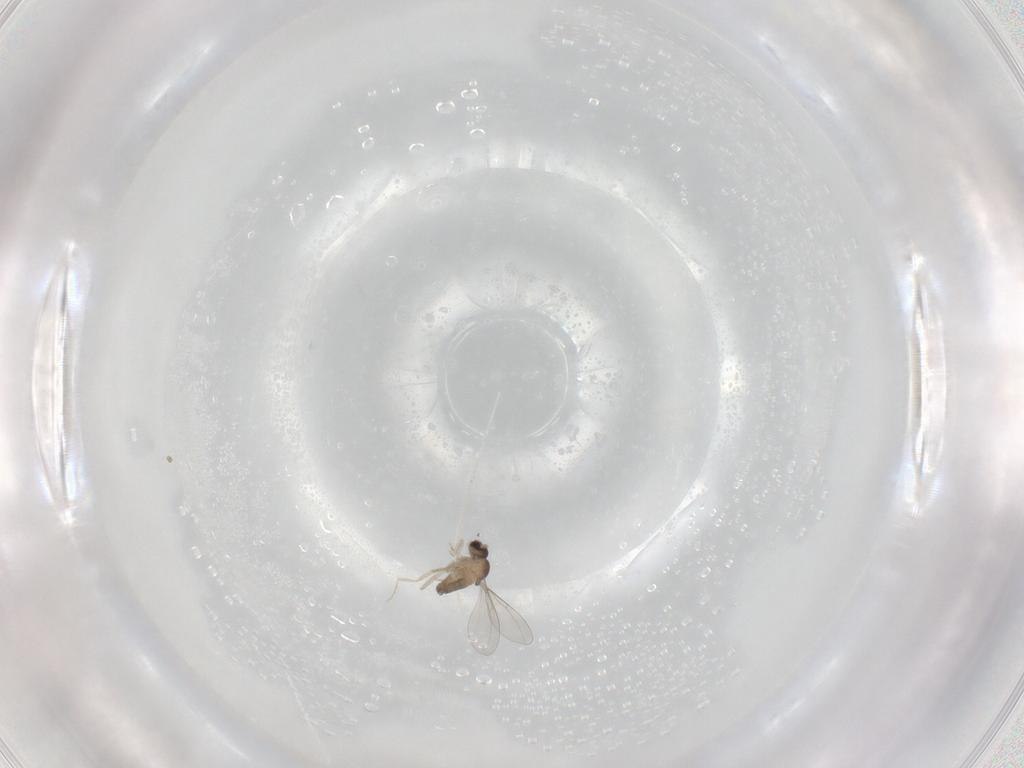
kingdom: Animalia
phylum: Arthropoda
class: Insecta
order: Diptera
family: Cecidomyiidae
